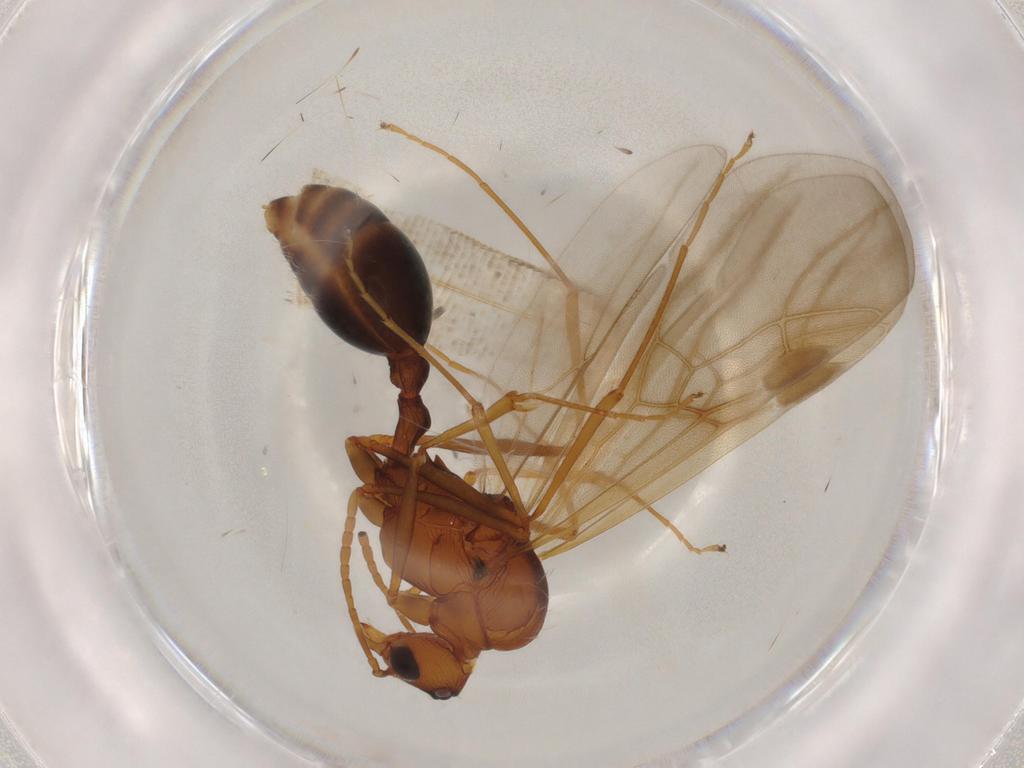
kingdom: Animalia
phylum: Arthropoda
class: Insecta
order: Hymenoptera
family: Formicidae
